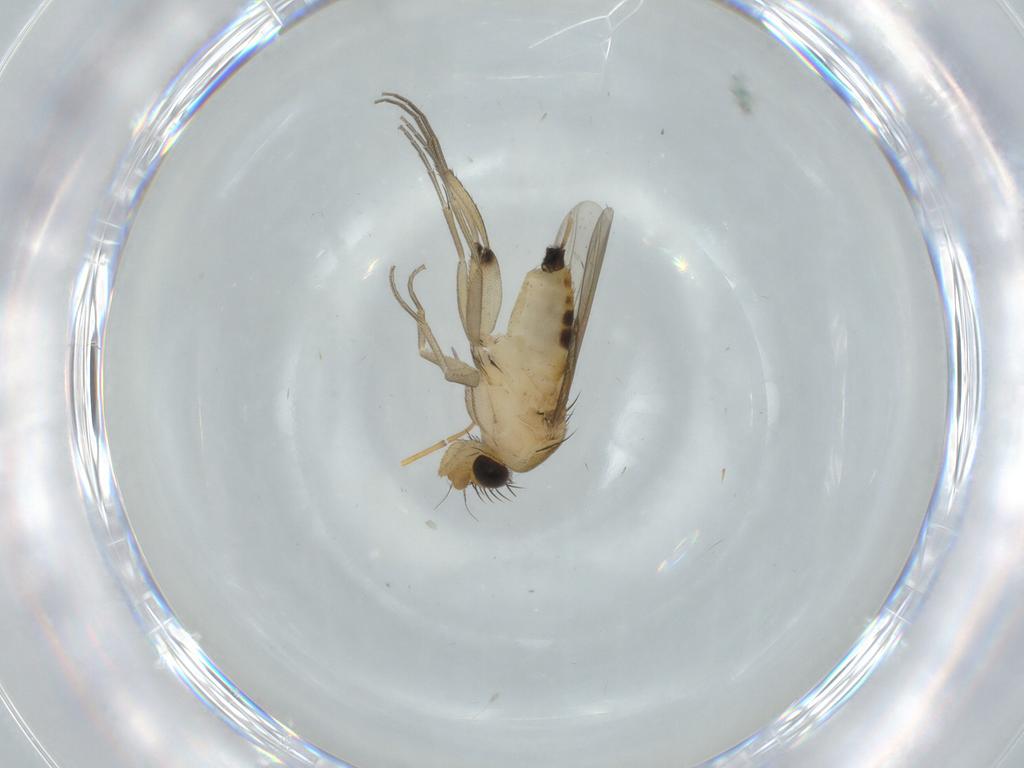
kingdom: Animalia
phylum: Arthropoda
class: Insecta
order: Diptera
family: Phoridae
